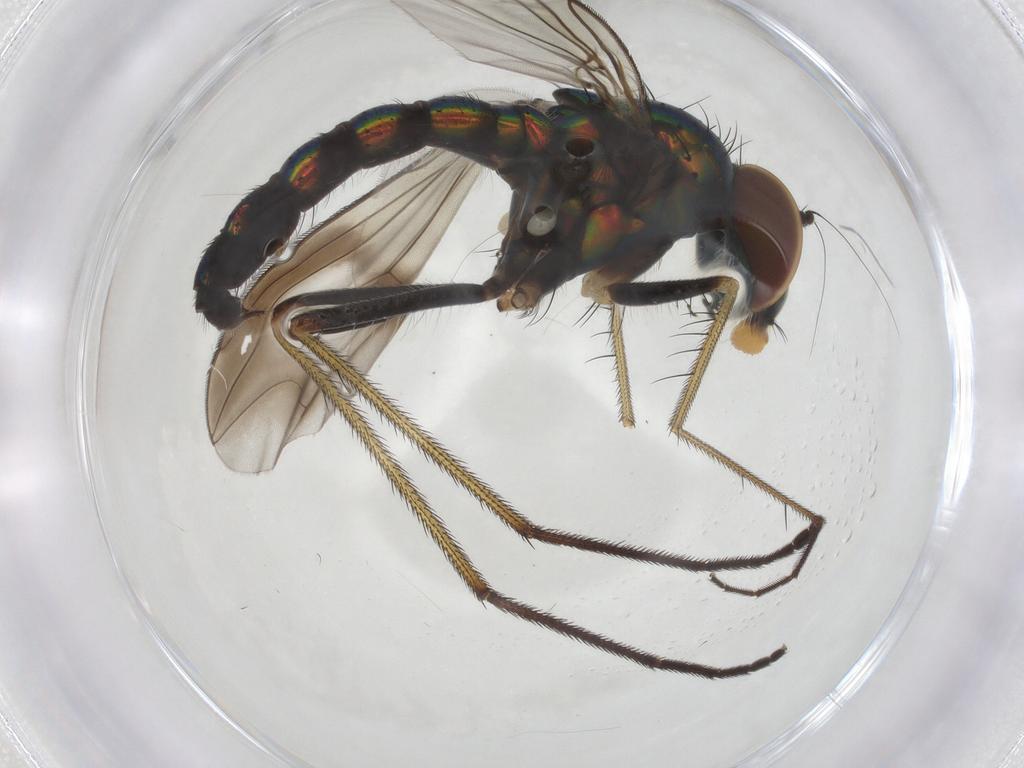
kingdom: Animalia
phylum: Arthropoda
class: Insecta
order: Diptera
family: Dolichopodidae
